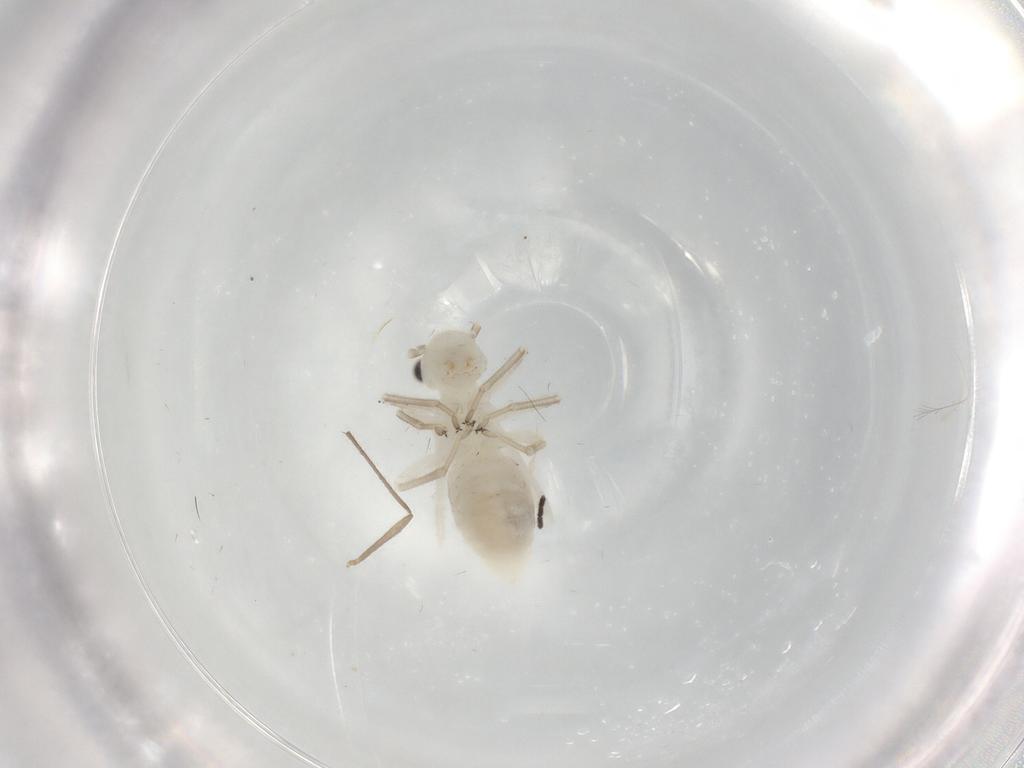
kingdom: Animalia
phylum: Arthropoda
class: Insecta
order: Psocodea
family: Caeciliusidae
